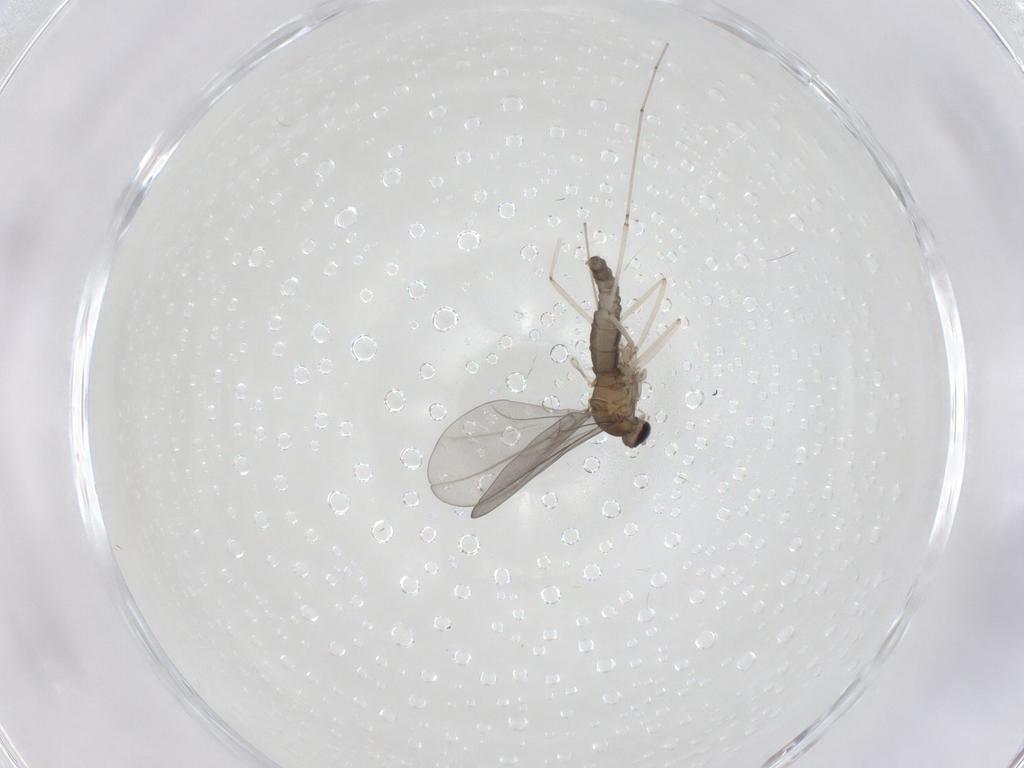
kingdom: Animalia
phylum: Arthropoda
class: Insecta
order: Diptera
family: Cecidomyiidae
